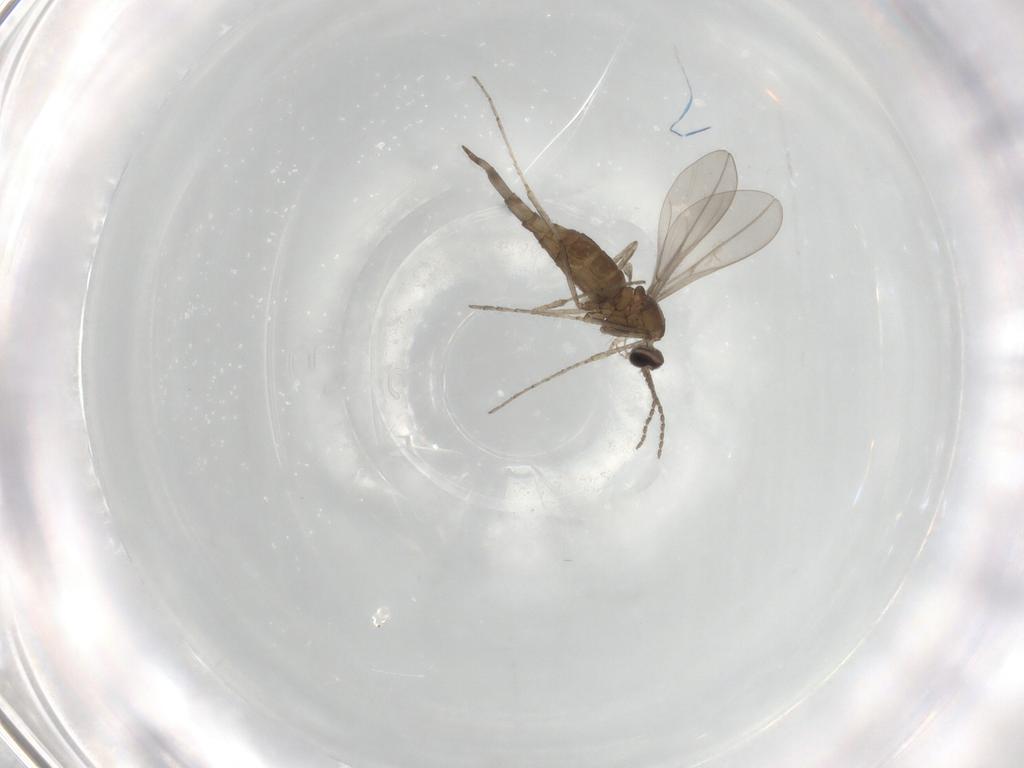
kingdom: Animalia
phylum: Arthropoda
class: Insecta
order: Diptera
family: Cecidomyiidae
